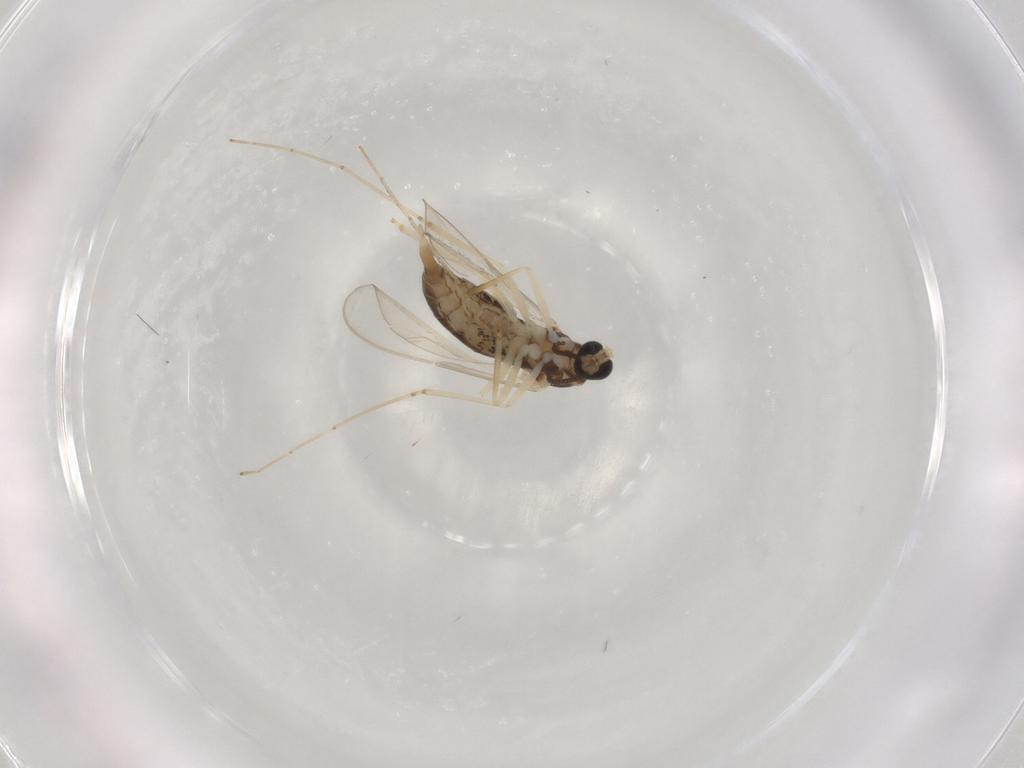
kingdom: Animalia
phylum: Arthropoda
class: Insecta
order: Diptera
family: Cecidomyiidae
